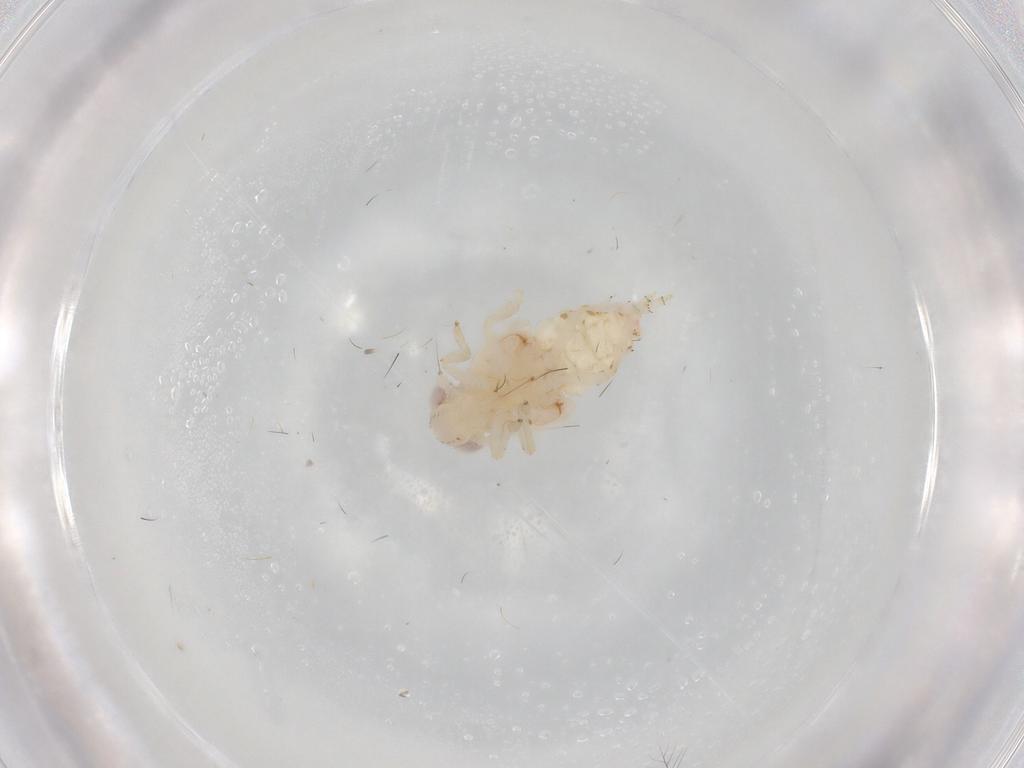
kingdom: Animalia
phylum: Arthropoda
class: Insecta
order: Hemiptera
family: Nogodinidae
